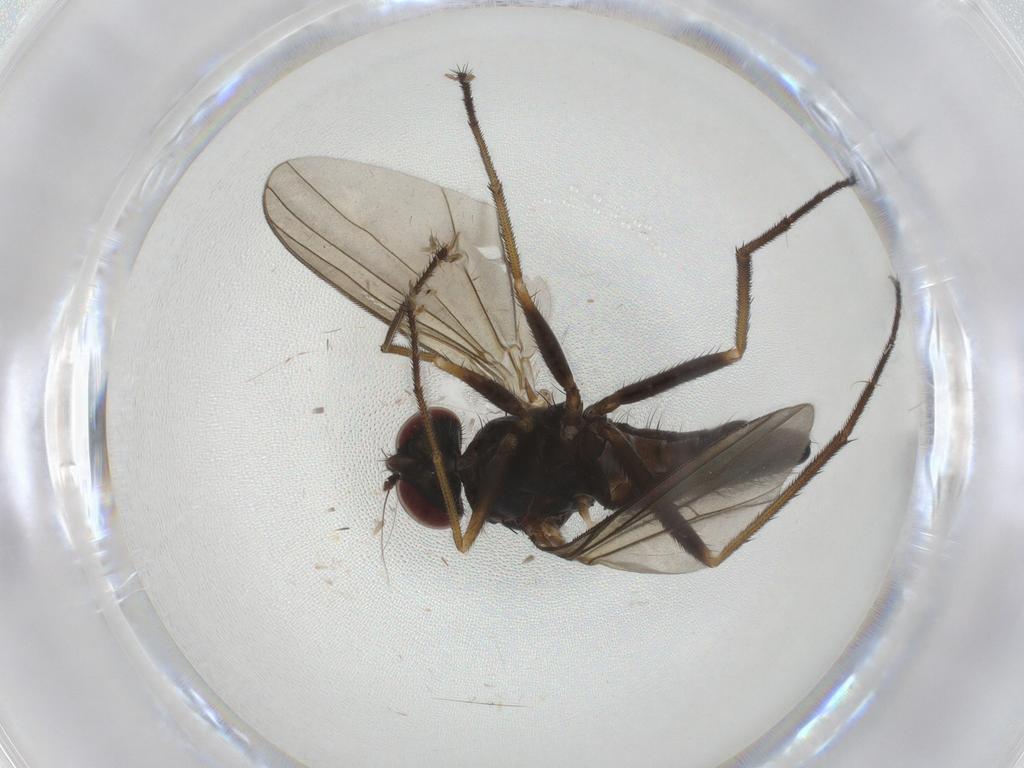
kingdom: Animalia
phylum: Arthropoda
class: Insecta
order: Diptera
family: Dolichopodidae
